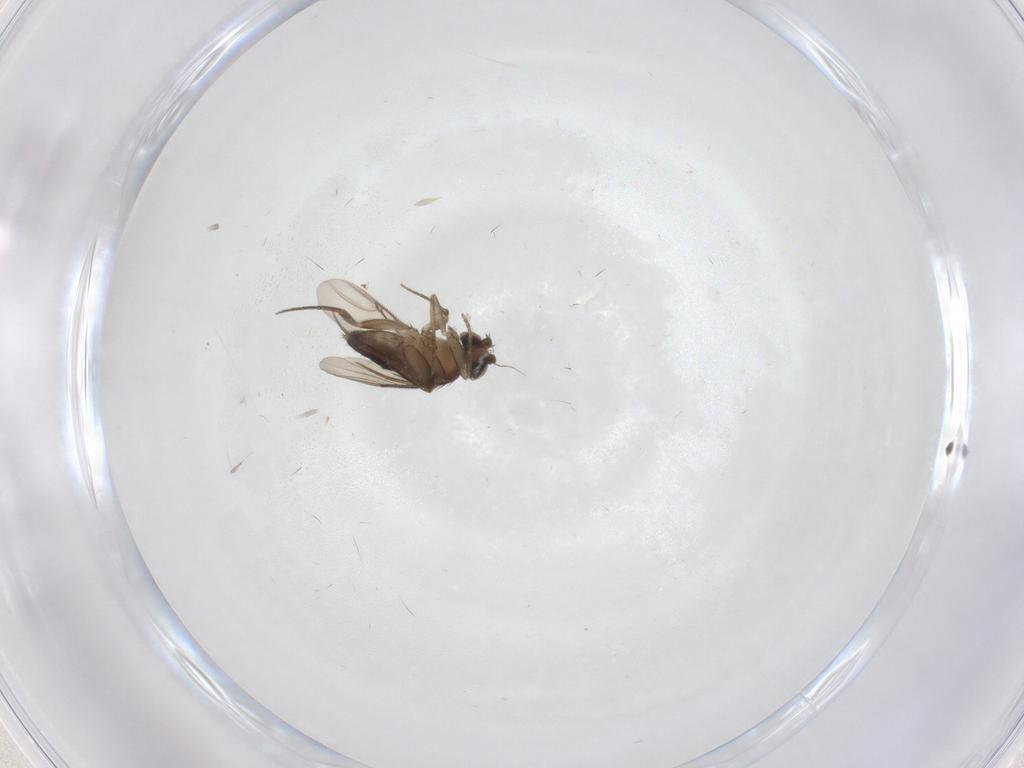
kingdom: Animalia
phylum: Arthropoda
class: Insecta
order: Diptera
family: Phoridae
